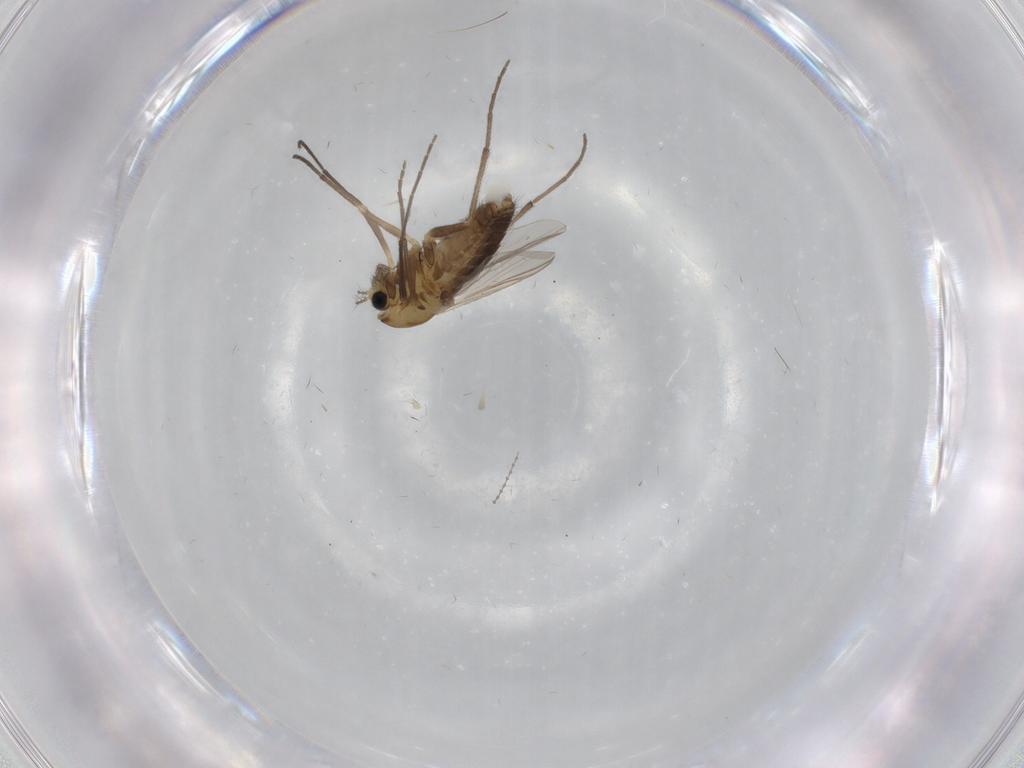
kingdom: Animalia
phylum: Arthropoda
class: Insecta
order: Diptera
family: Chironomidae
